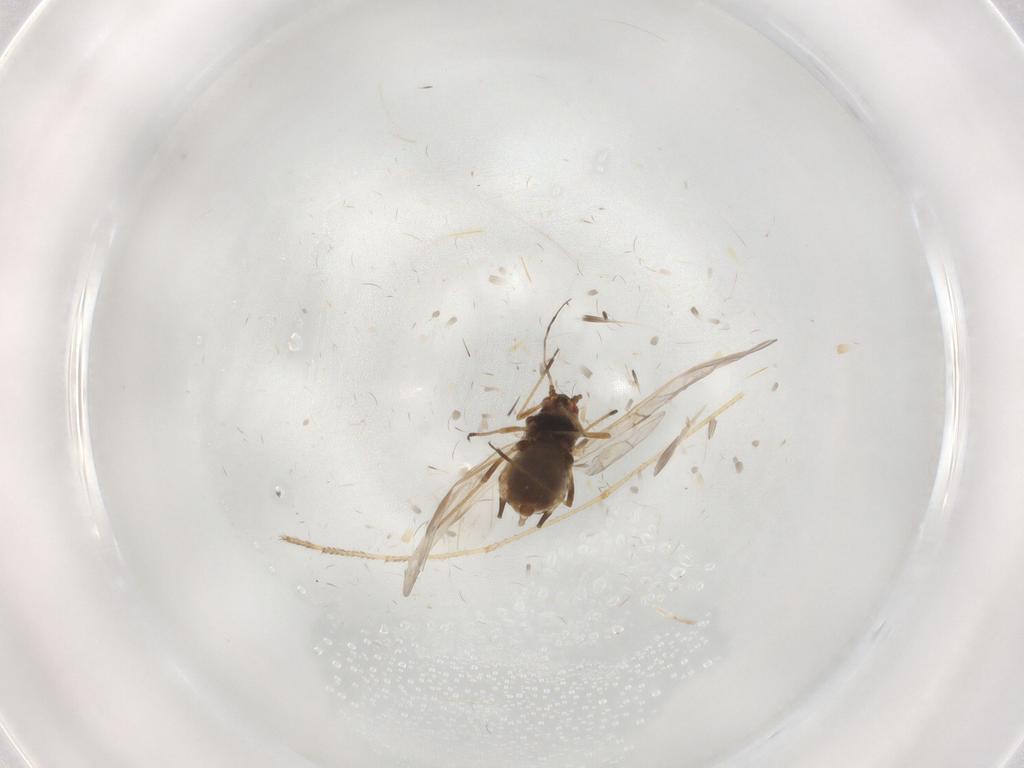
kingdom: Animalia
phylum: Arthropoda
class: Insecta
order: Hemiptera
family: Aphididae
